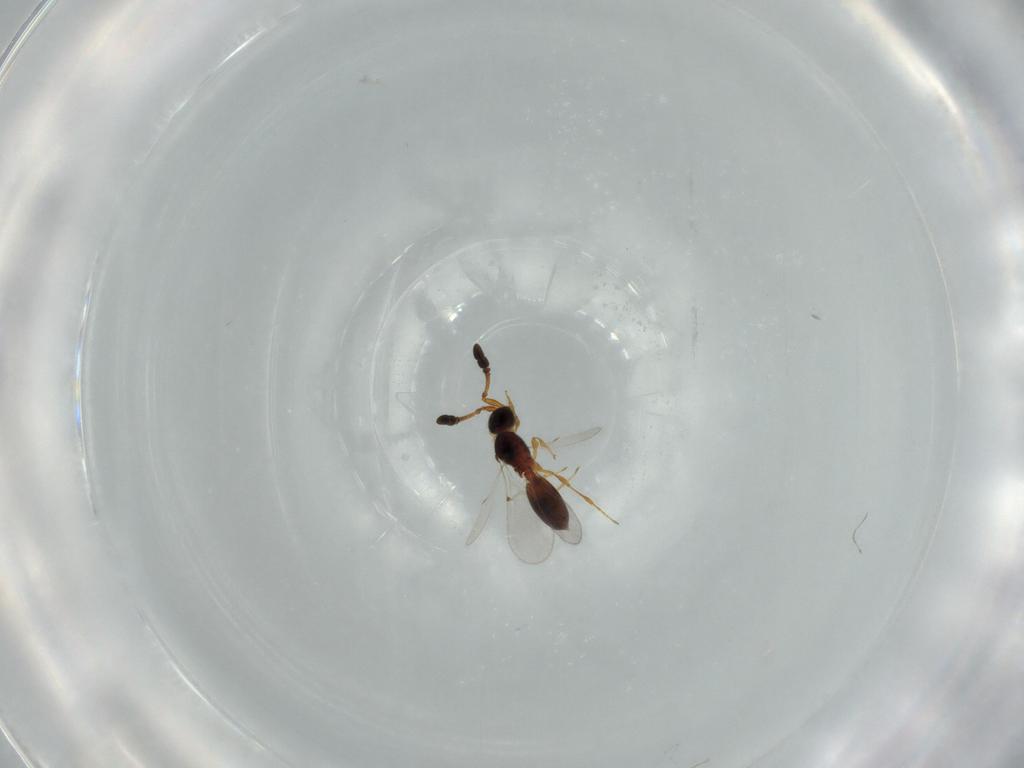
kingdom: Animalia
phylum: Arthropoda
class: Insecta
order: Hymenoptera
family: Diapriidae
